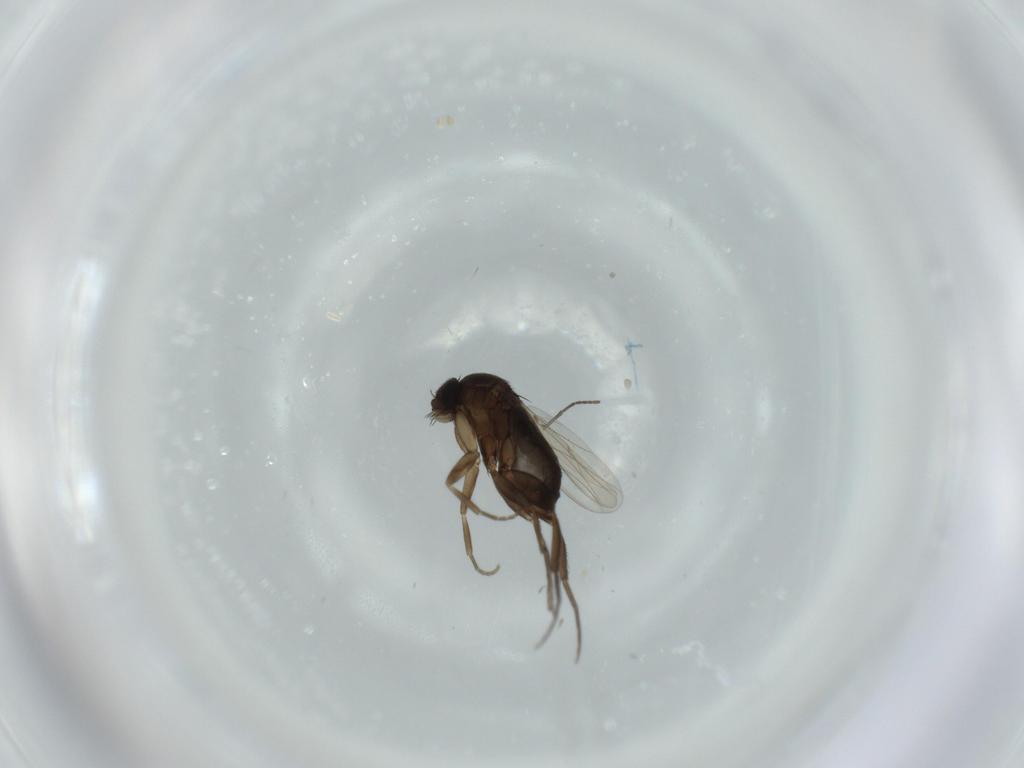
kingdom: Animalia
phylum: Arthropoda
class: Insecta
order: Diptera
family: Phoridae
